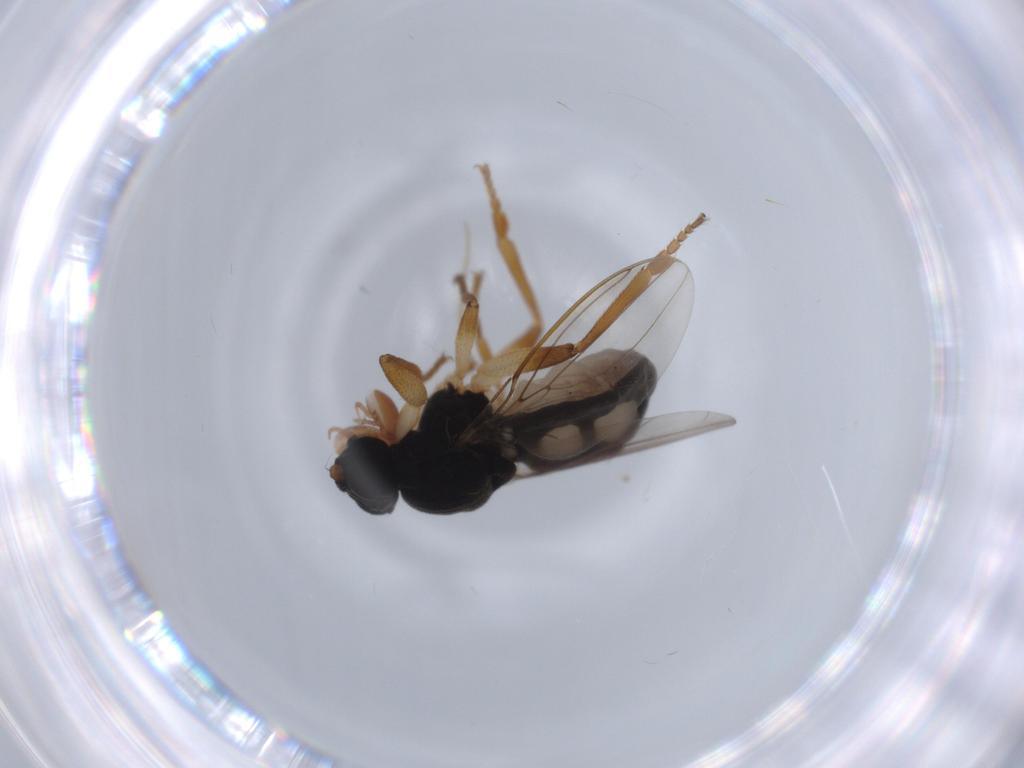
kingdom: Animalia
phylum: Arthropoda
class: Insecta
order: Diptera
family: Sphaeroceridae
